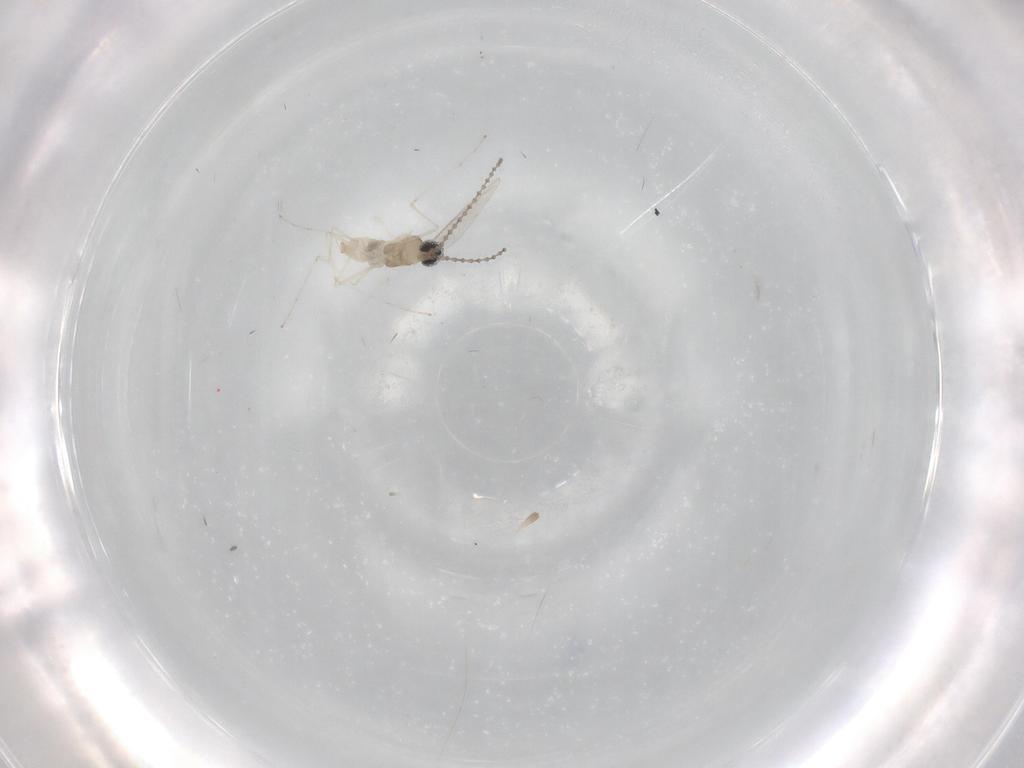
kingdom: Animalia
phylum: Arthropoda
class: Insecta
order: Diptera
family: Cecidomyiidae
